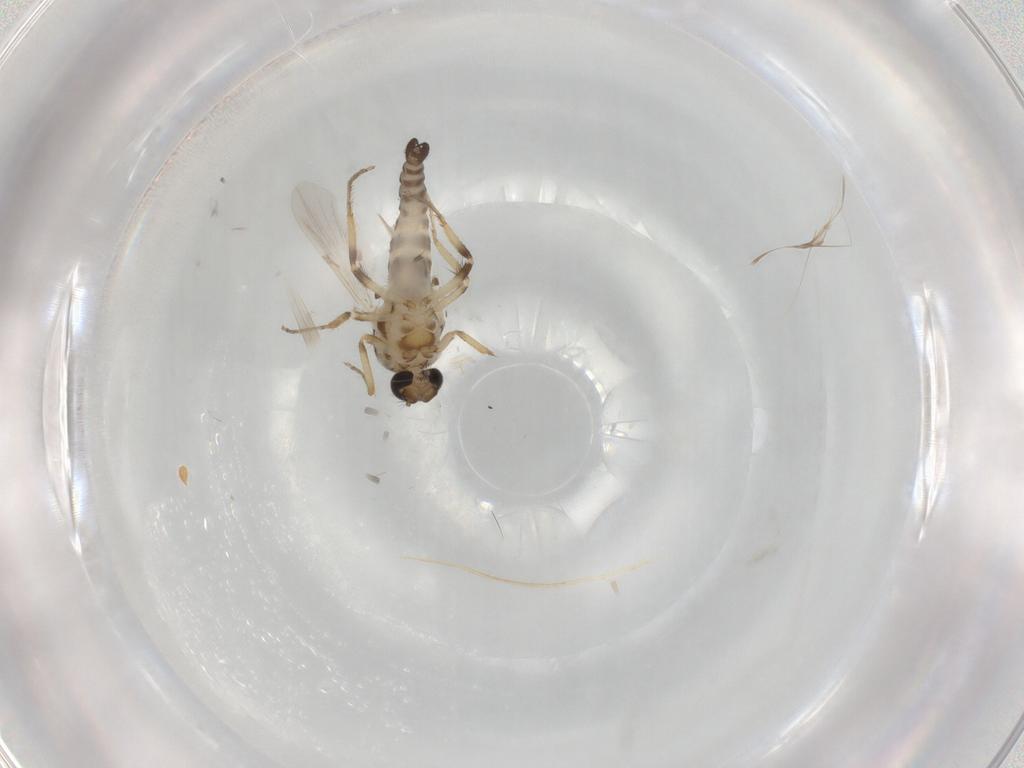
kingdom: Animalia
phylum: Arthropoda
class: Insecta
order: Diptera
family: Ceratopogonidae
